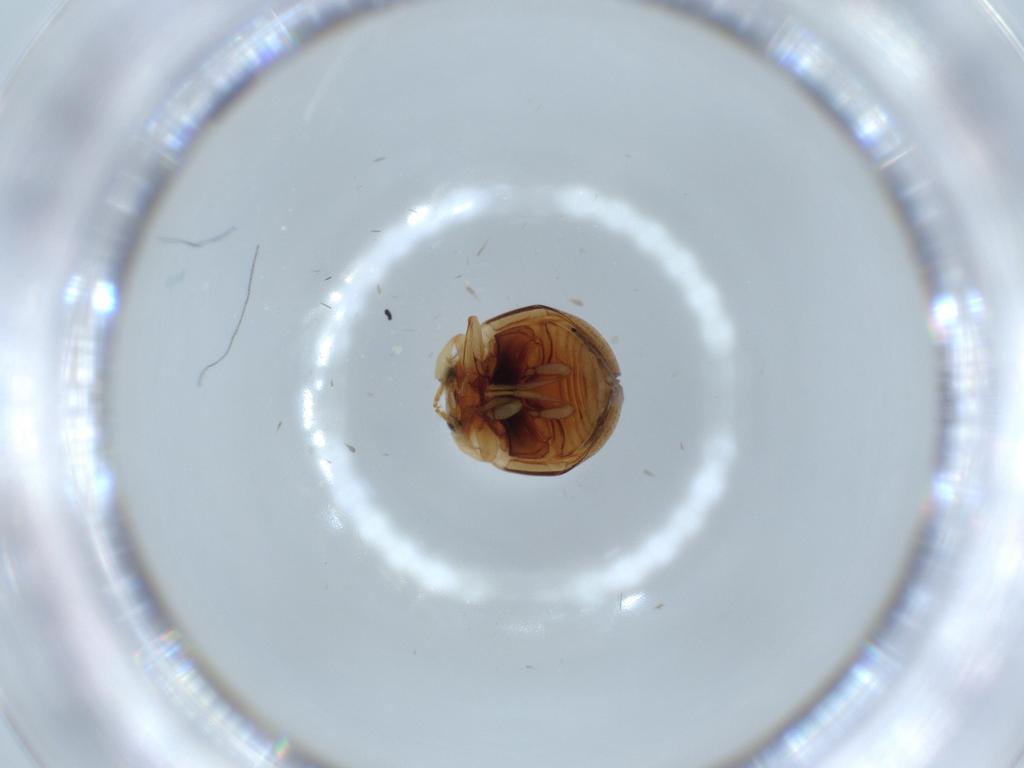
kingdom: Animalia
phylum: Arthropoda
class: Insecta
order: Coleoptera
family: Coccinellidae
